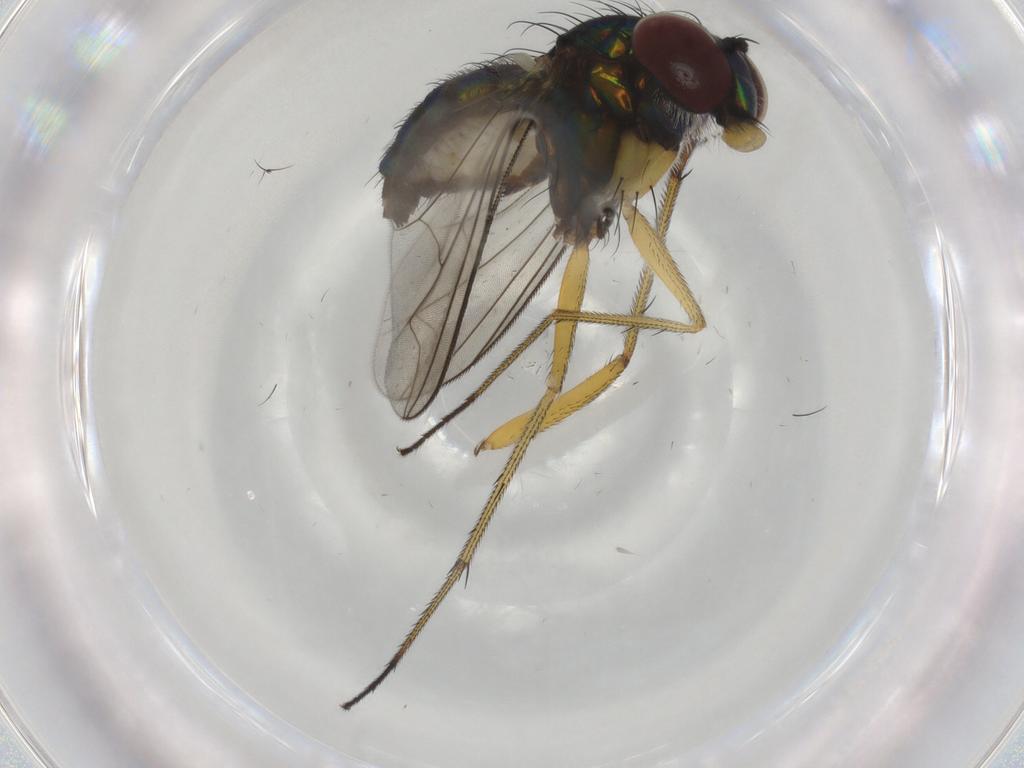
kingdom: Animalia
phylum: Arthropoda
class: Insecta
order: Diptera
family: Dolichopodidae
